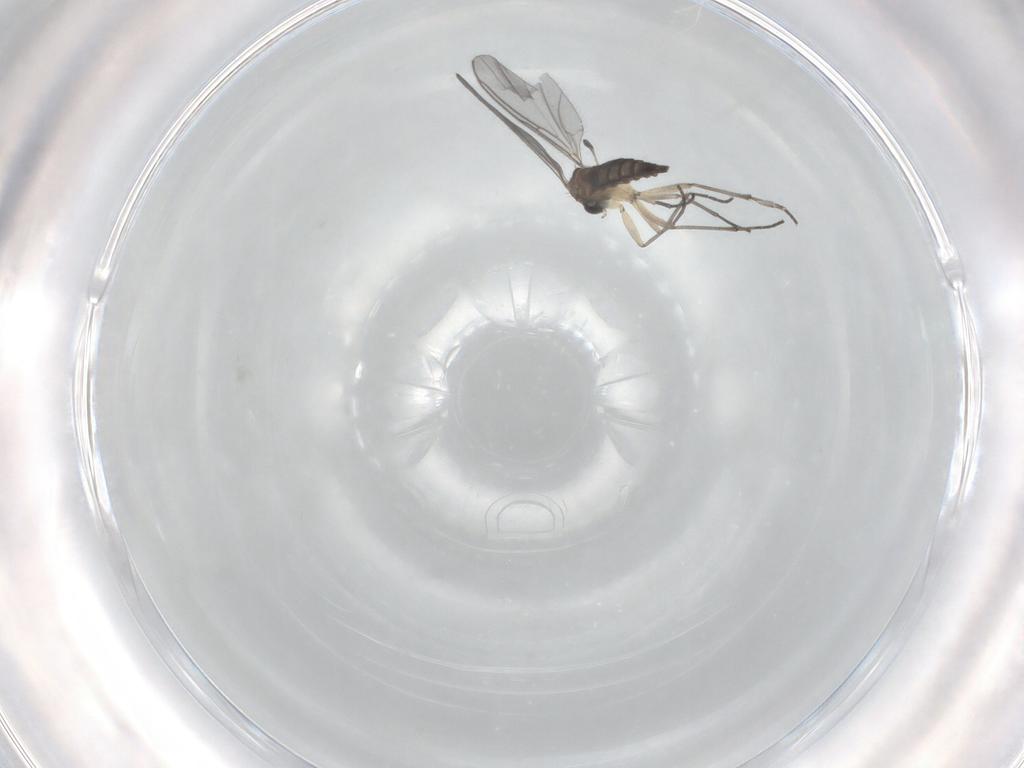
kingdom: Animalia
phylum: Arthropoda
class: Insecta
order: Diptera
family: Sciaridae
